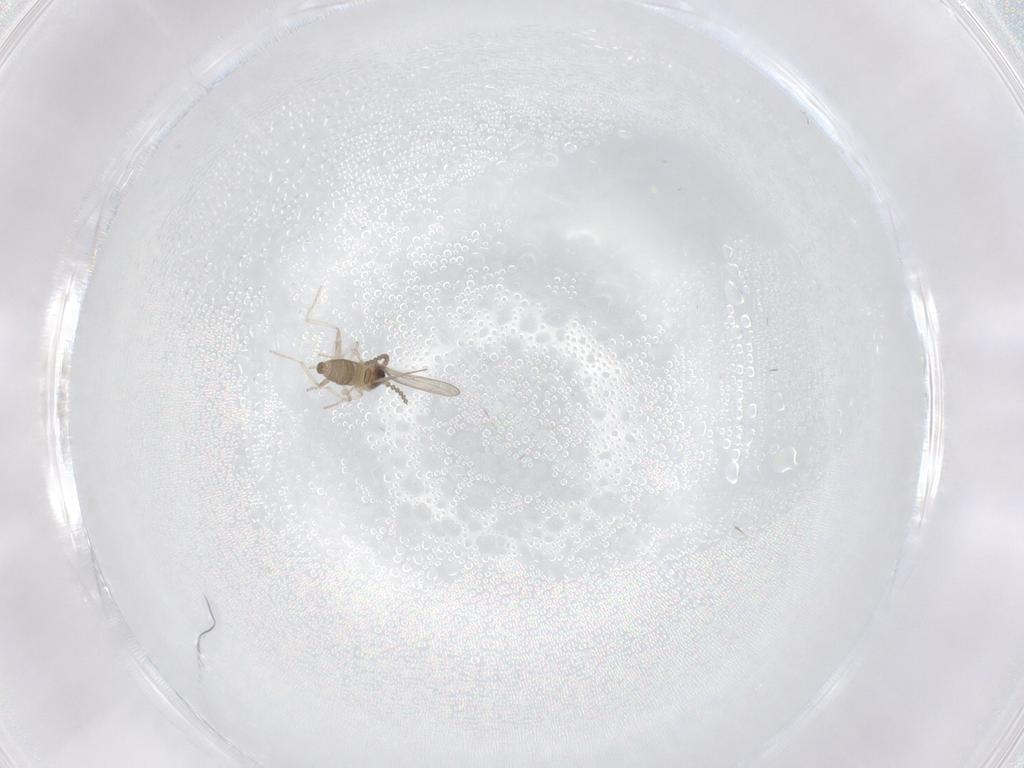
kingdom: Animalia
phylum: Arthropoda
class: Insecta
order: Diptera
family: Cecidomyiidae
